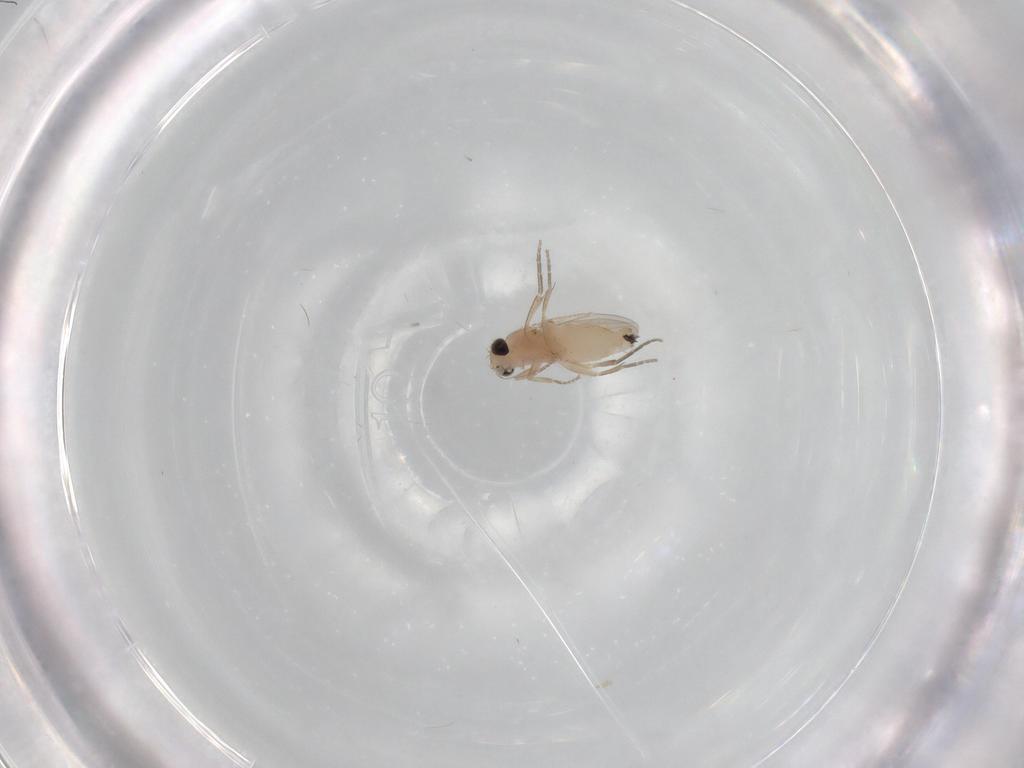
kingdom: Animalia
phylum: Arthropoda
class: Insecta
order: Diptera
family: Phoridae
